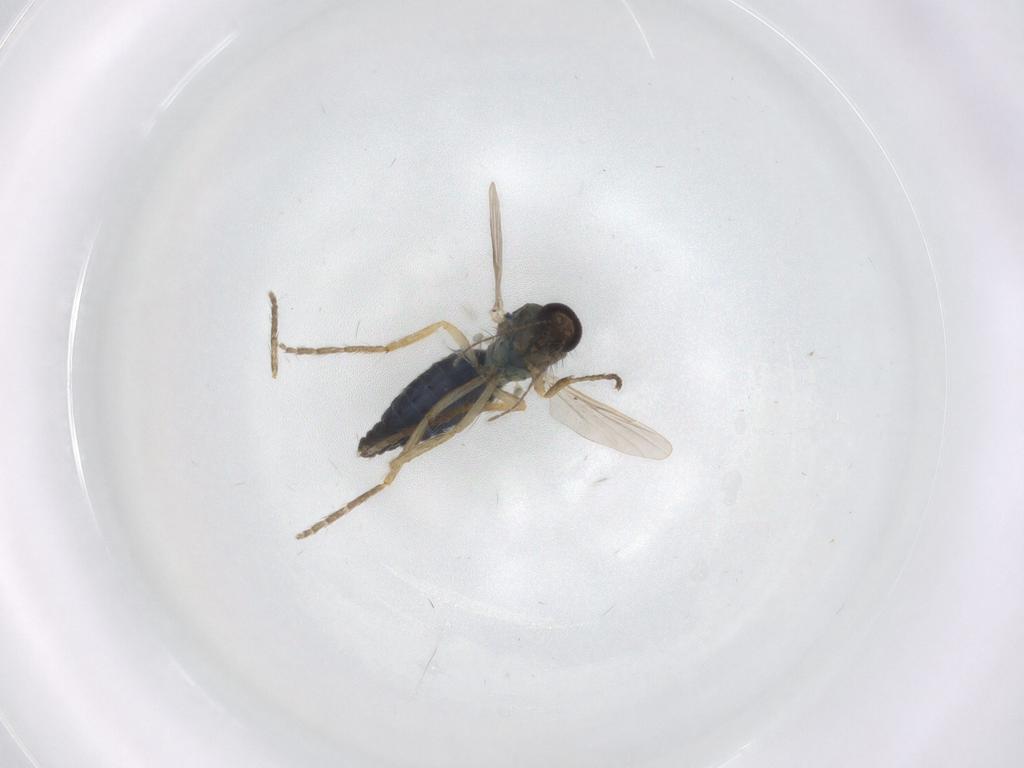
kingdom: Animalia
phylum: Arthropoda
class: Insecta
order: Diptera
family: Ceratopogonidae
